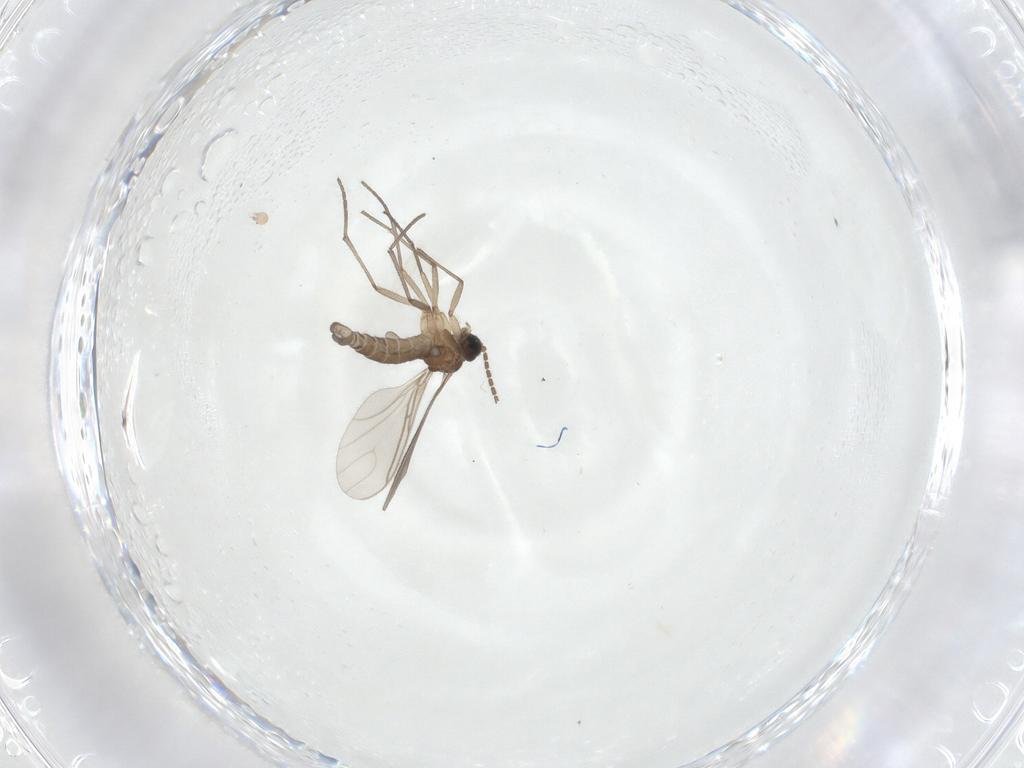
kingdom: Animalia
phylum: Arthropoda
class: Insecta
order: Diptera
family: Sciaridae
